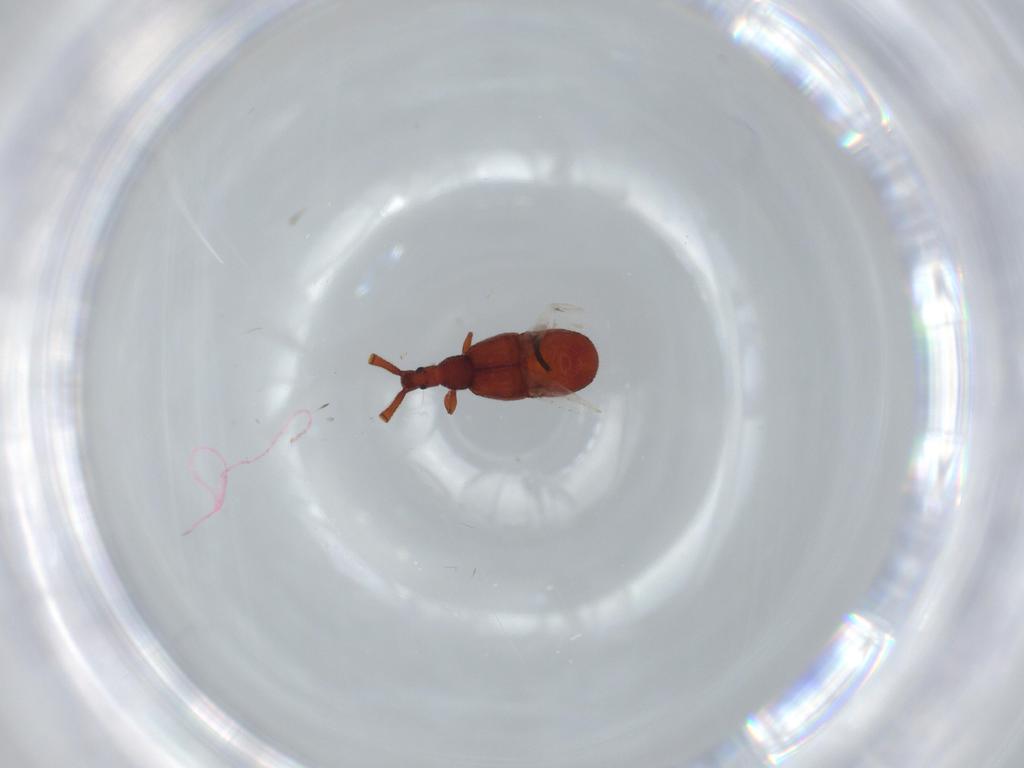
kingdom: Animalia
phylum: Arthropoda
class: Insecta
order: Coleoptera
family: Staphylinidae
